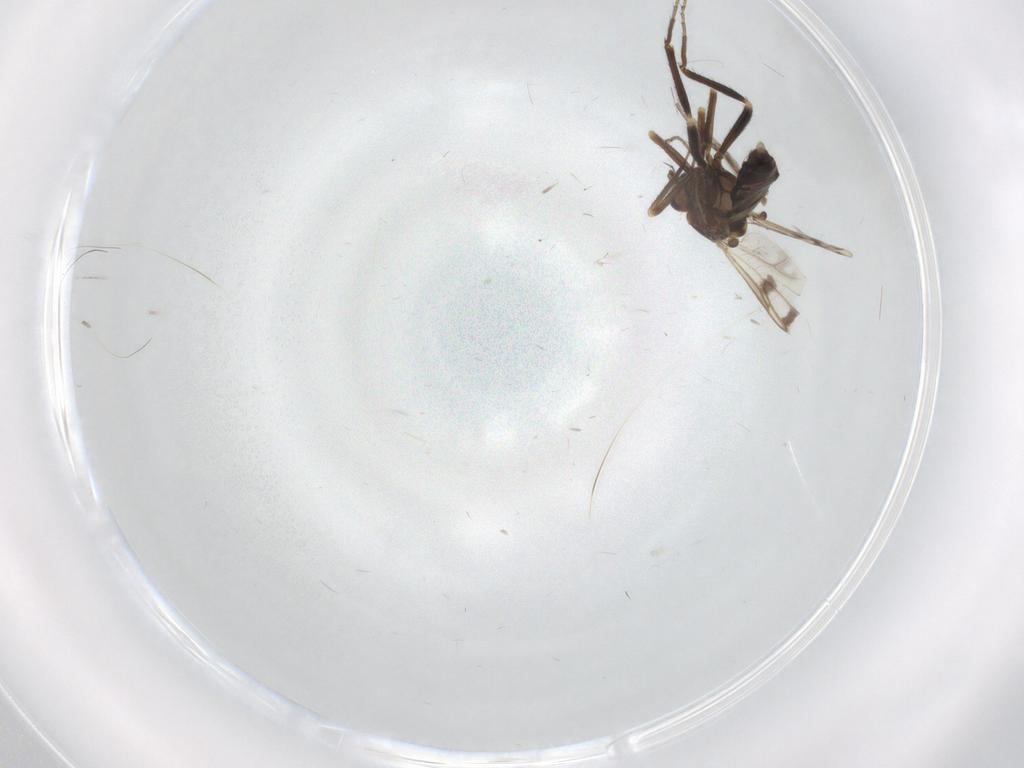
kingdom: Animalia
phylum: Arthropoda
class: Insecta
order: Diptera
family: Ceratopogonidae
